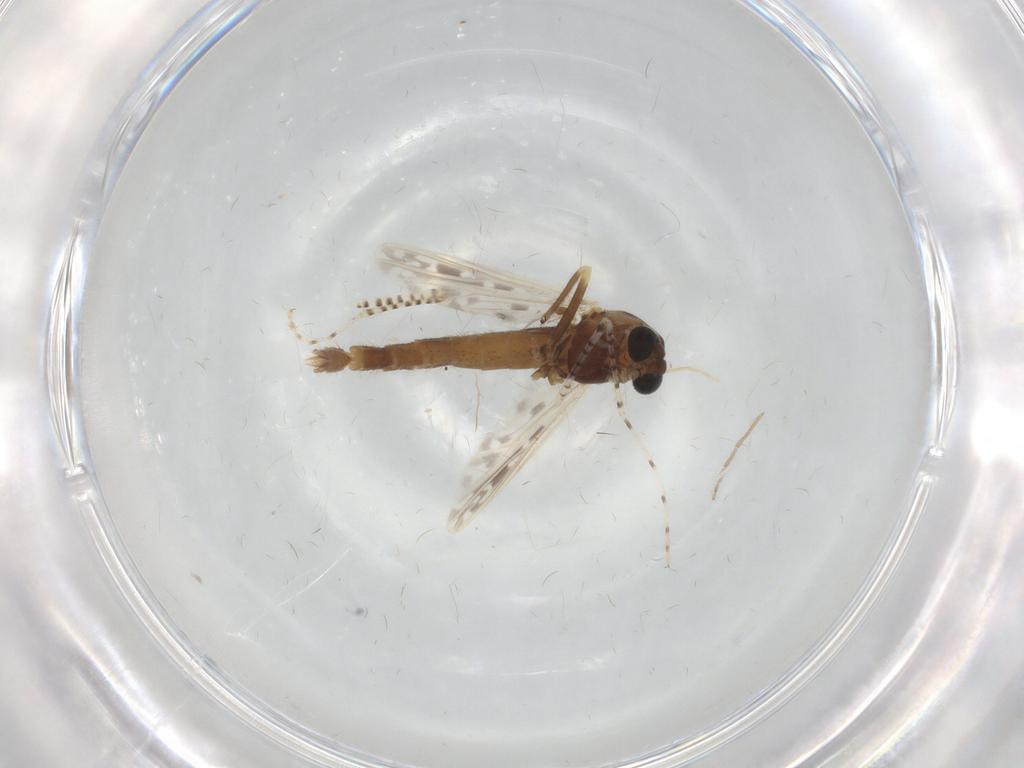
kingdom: Animalia
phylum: Arthropoda
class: Insecta
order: Diptera
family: Chaoboridae
